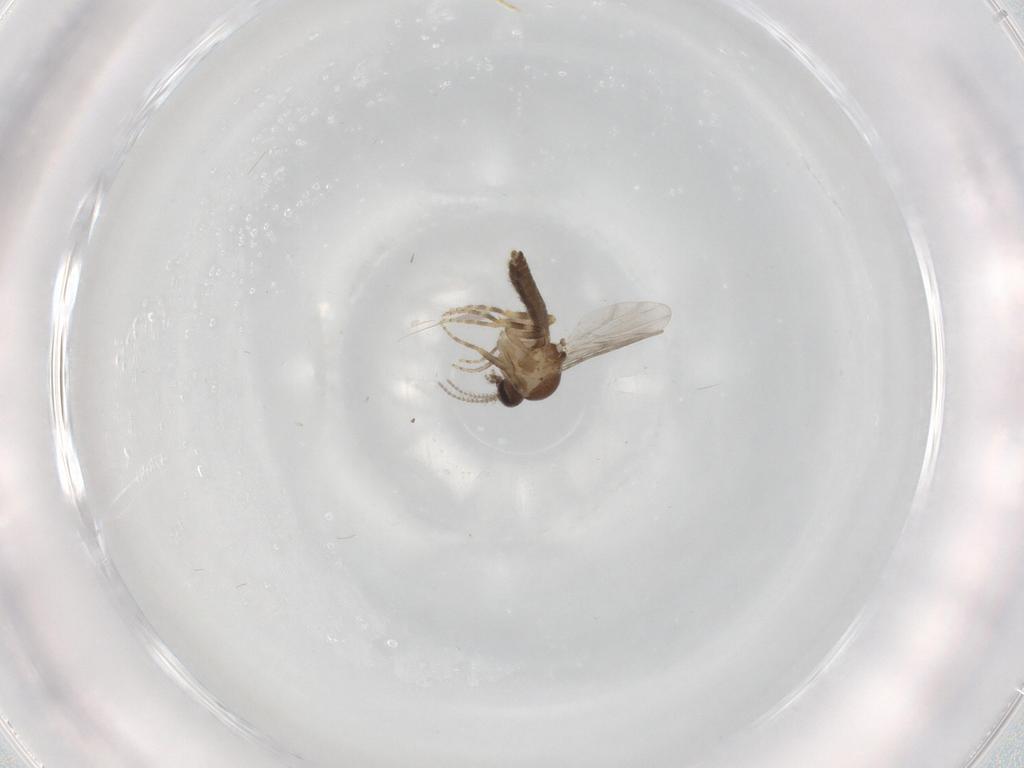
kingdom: Animalia
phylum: Arthropoda
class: Insecta
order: Diptera
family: Ceratopogonidae
